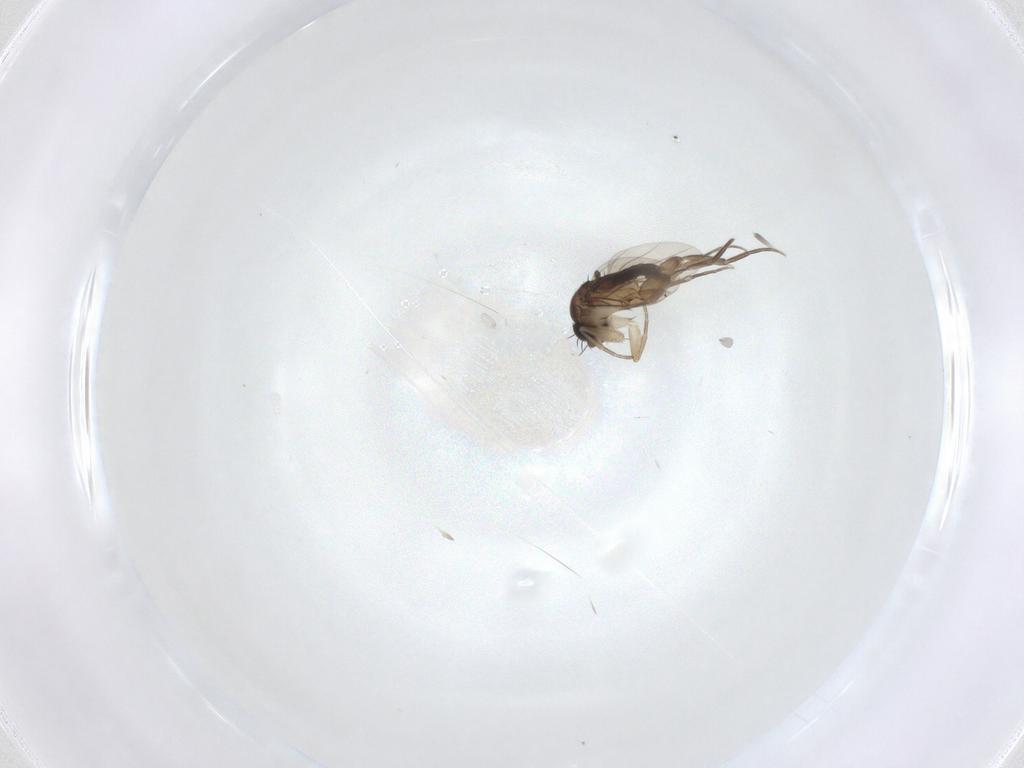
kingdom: Animalia
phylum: Arthropoda
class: Insecta
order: Diptera
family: Phoridae
